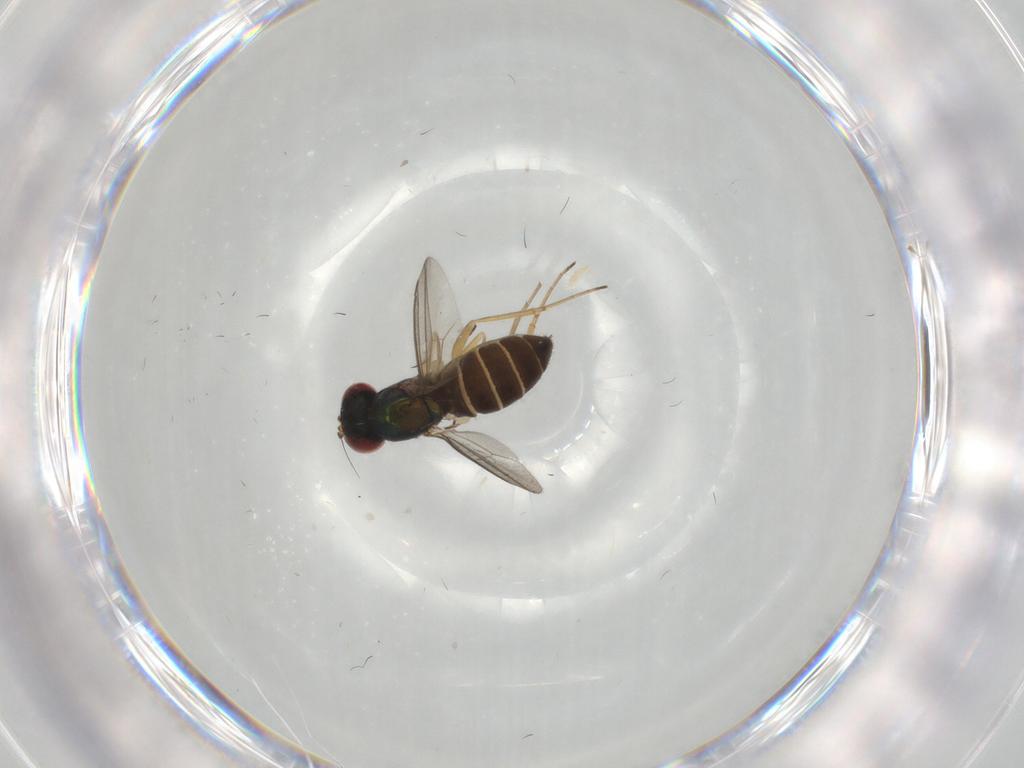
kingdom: Animalia
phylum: Arthropoda
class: Insecta
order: Diptera
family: Dolichopodidae
